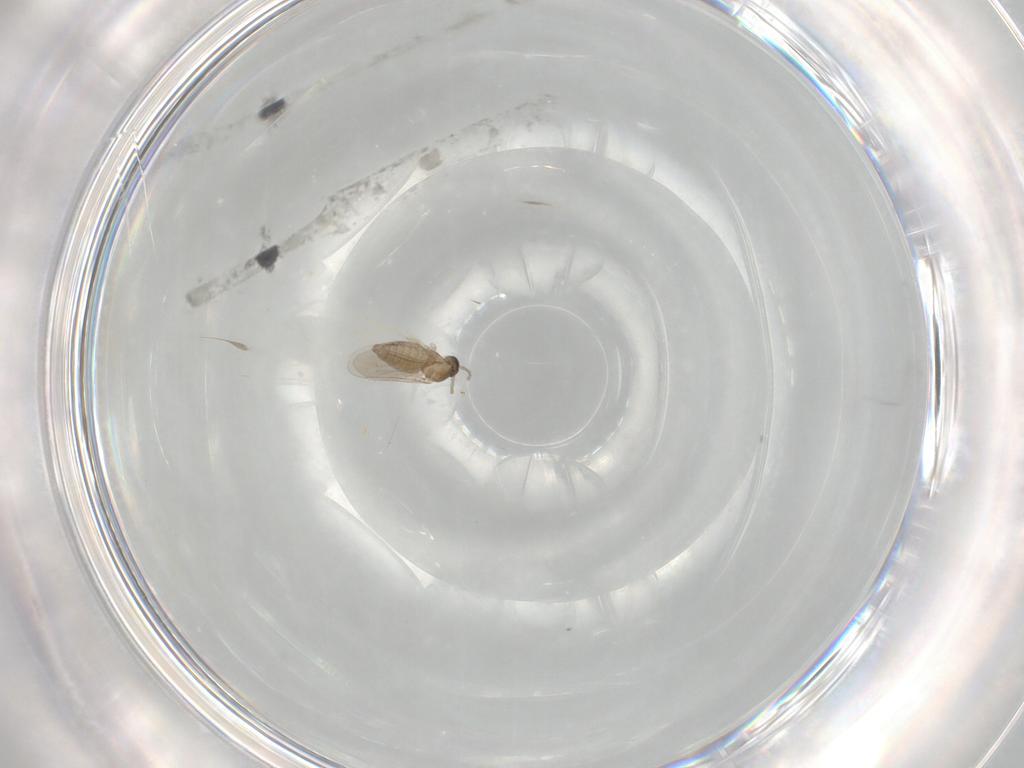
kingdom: Animalia
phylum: Arthropoda
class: Insecta
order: Diptera
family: Cecidomyiidae
